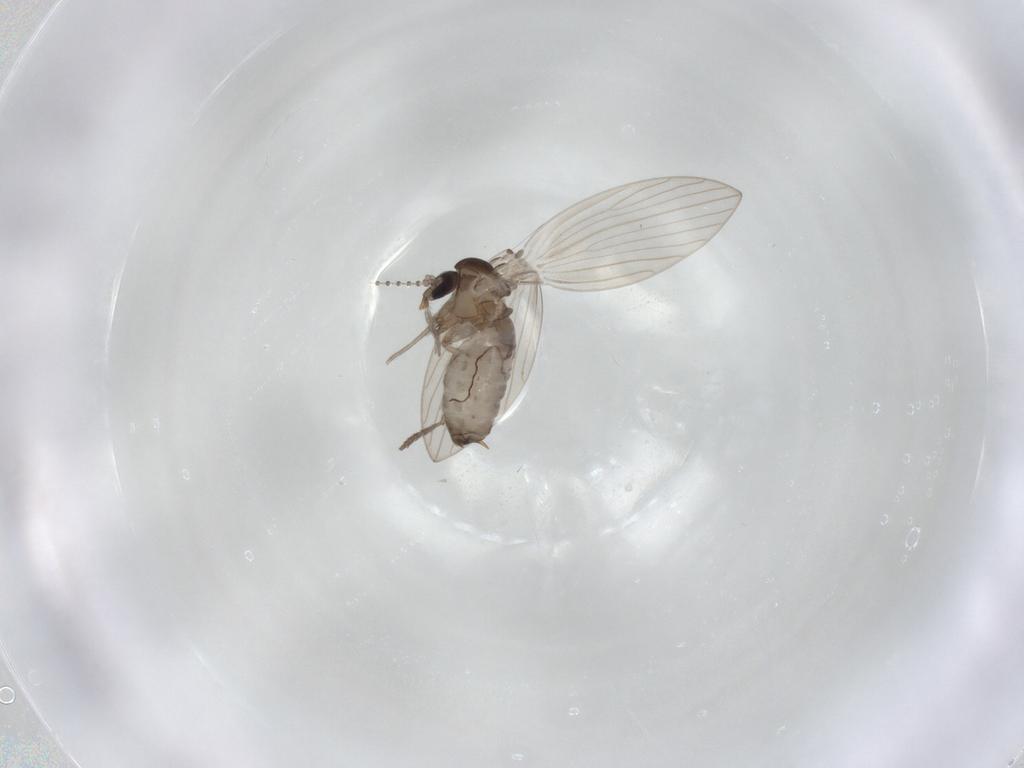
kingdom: Animalia
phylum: Arthropoda
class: Insecta
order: Diptera
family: Psychodidae
